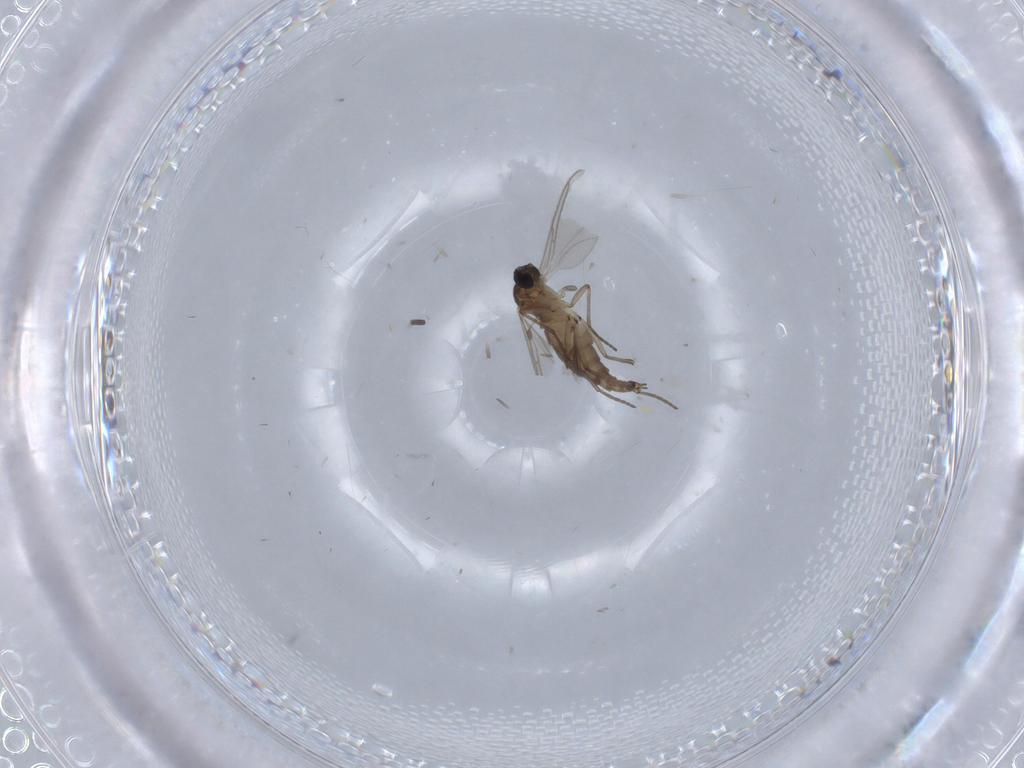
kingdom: Animalia
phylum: Arthropoda
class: Insecta
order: Diptera
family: Sciaridae
